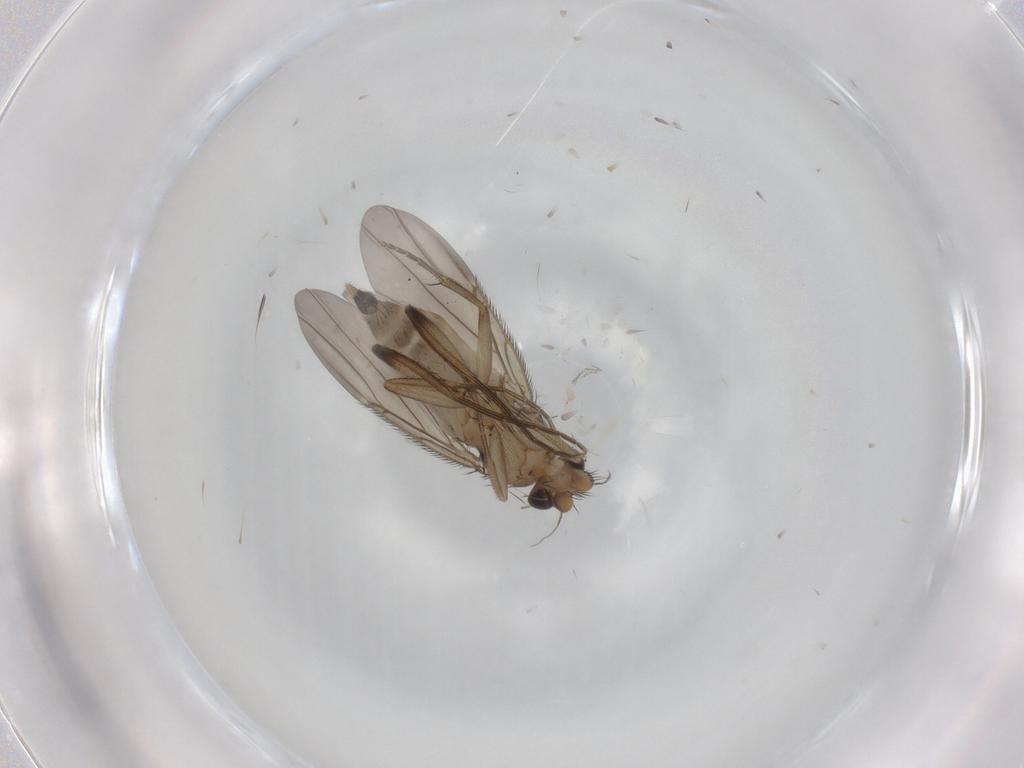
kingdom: Animalia
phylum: Arthropoda
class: Insecta
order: Diptera
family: Phoridae
